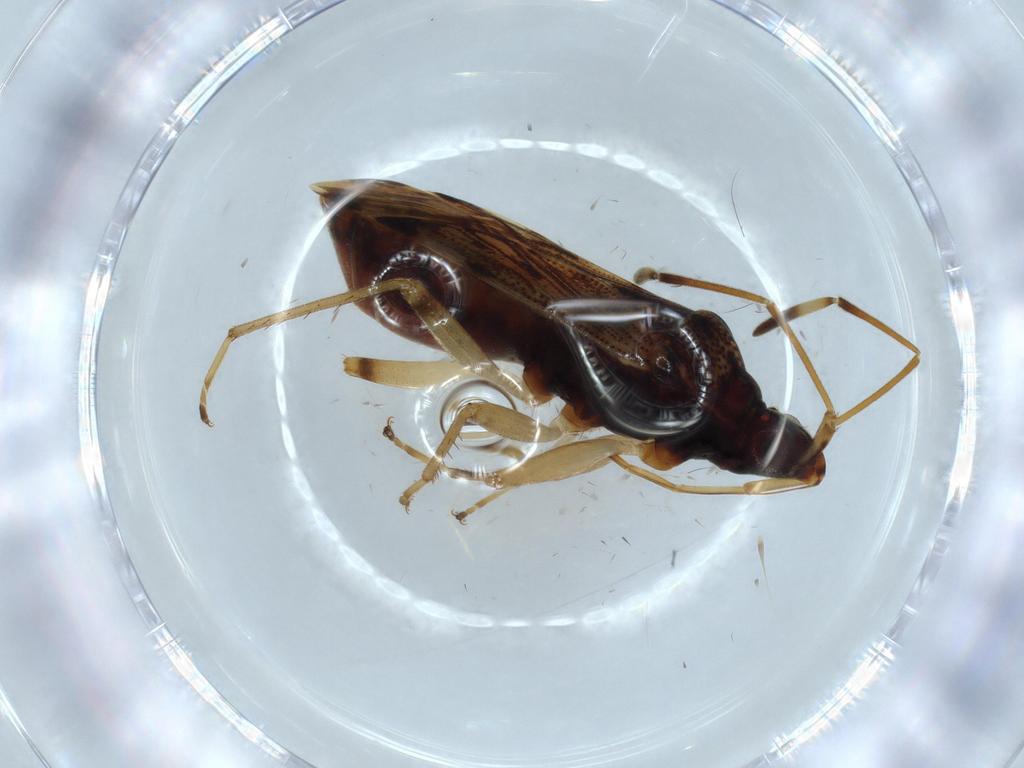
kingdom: Animalia
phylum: Arthropoda
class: Insecta
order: Hemiptera
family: Rhyparochromidae
